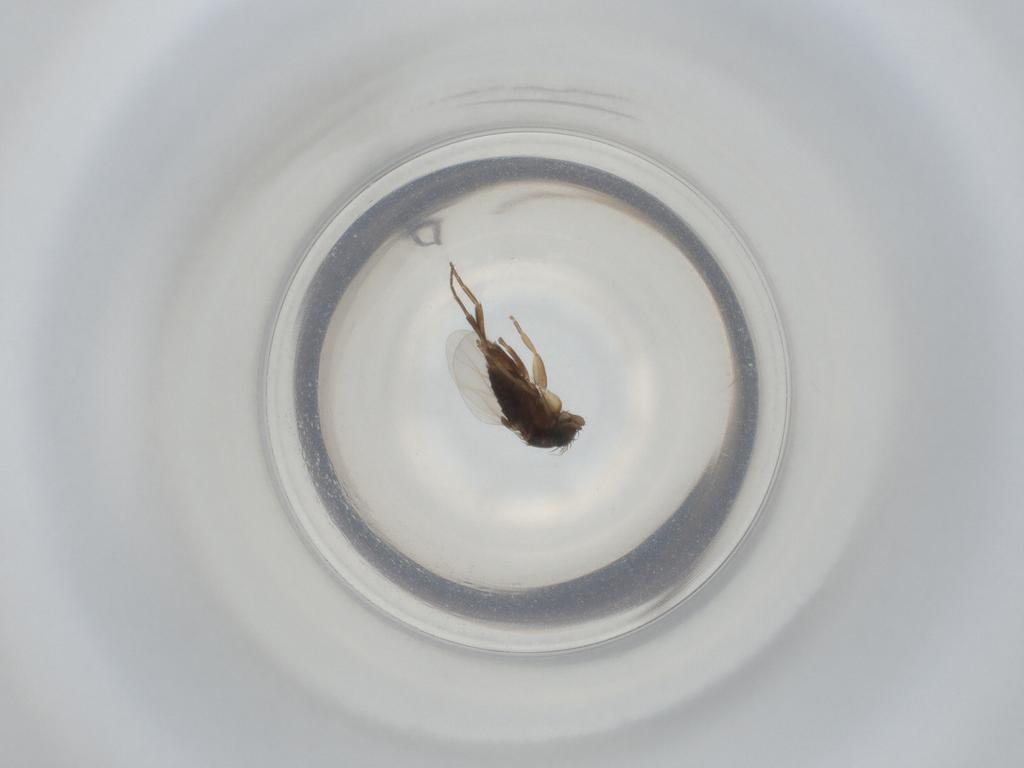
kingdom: Animalia
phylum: Arthropoda
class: Insecta
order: Diptera
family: Phoridae
